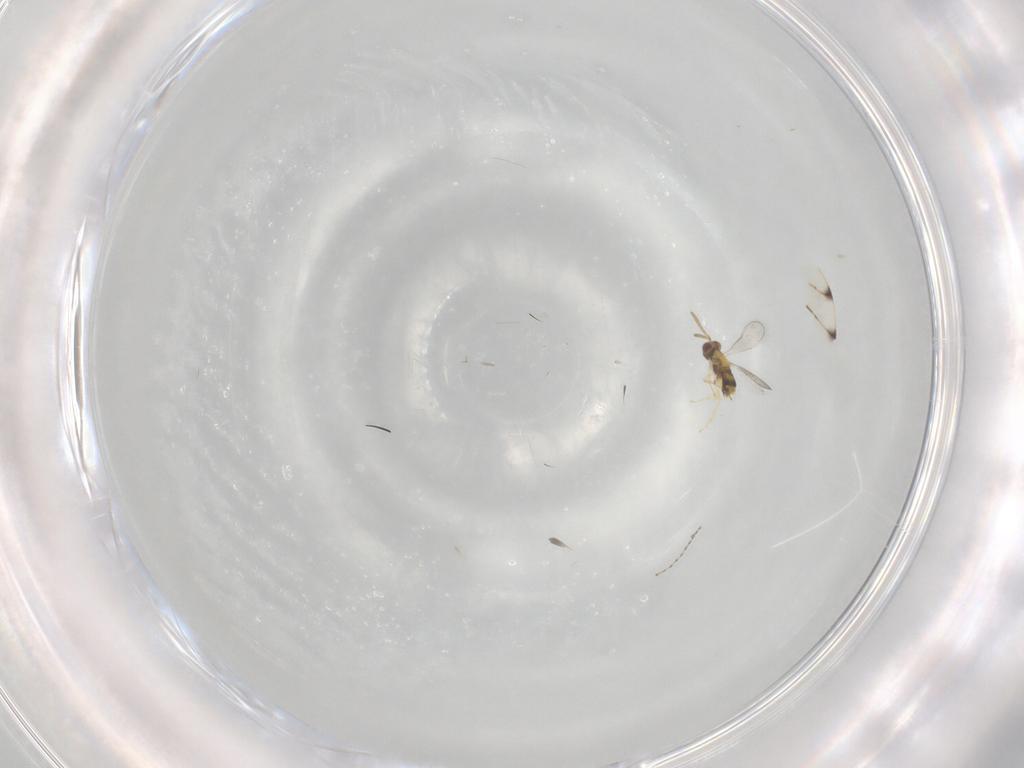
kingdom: Animalia
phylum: Arthropoda
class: Insecta
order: Hymenoptera
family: Aphelinidae
